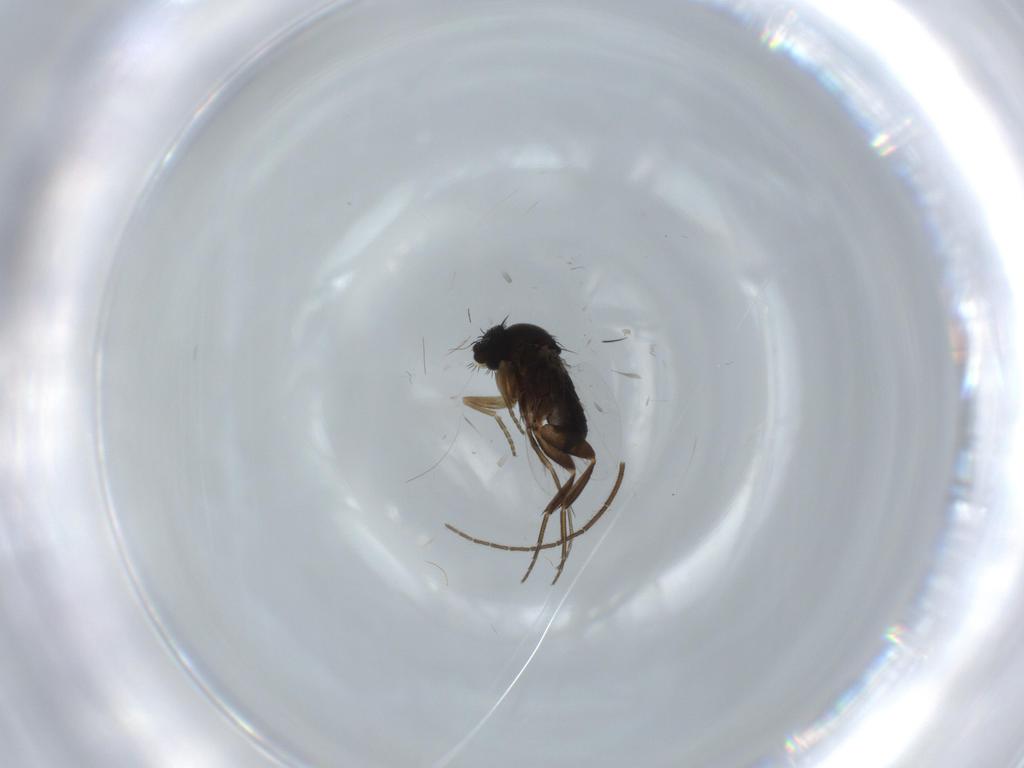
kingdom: Animalia
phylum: Arthropoda
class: Insecta
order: Diptera
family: Phoridae
